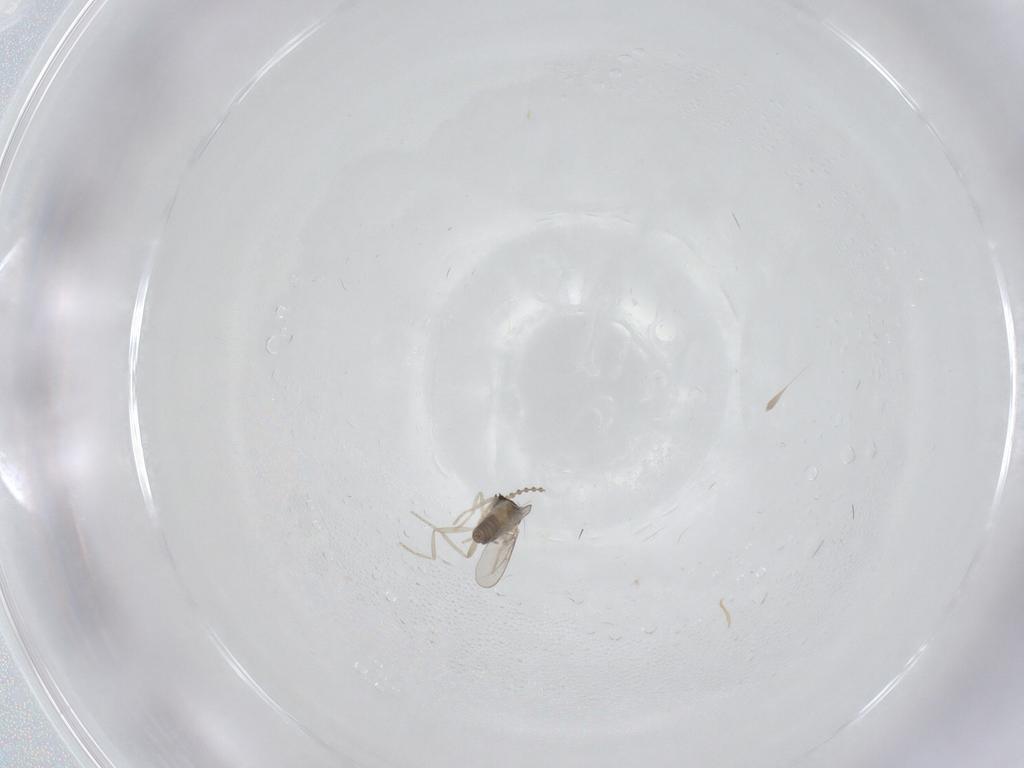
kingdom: Animalia
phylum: Arthropoda
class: Insecta
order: Diptera
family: Cecidomyiidae
